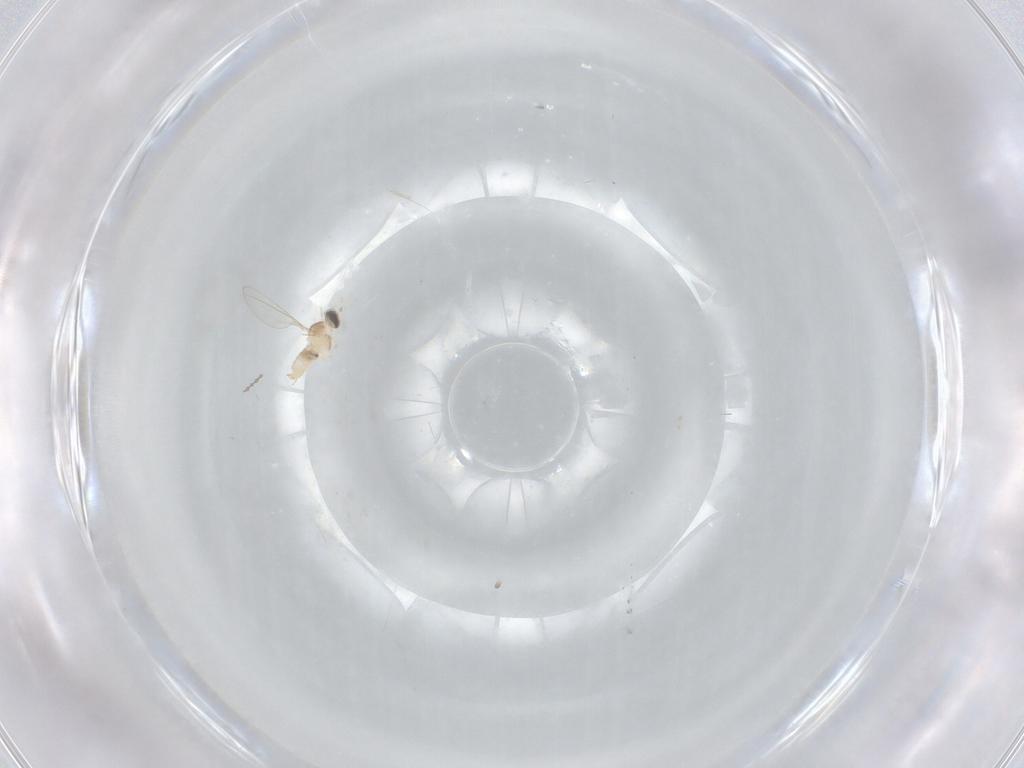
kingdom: Animalia
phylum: Arthropoda
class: Insecta
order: Diptera
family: Cecidomyiidae
